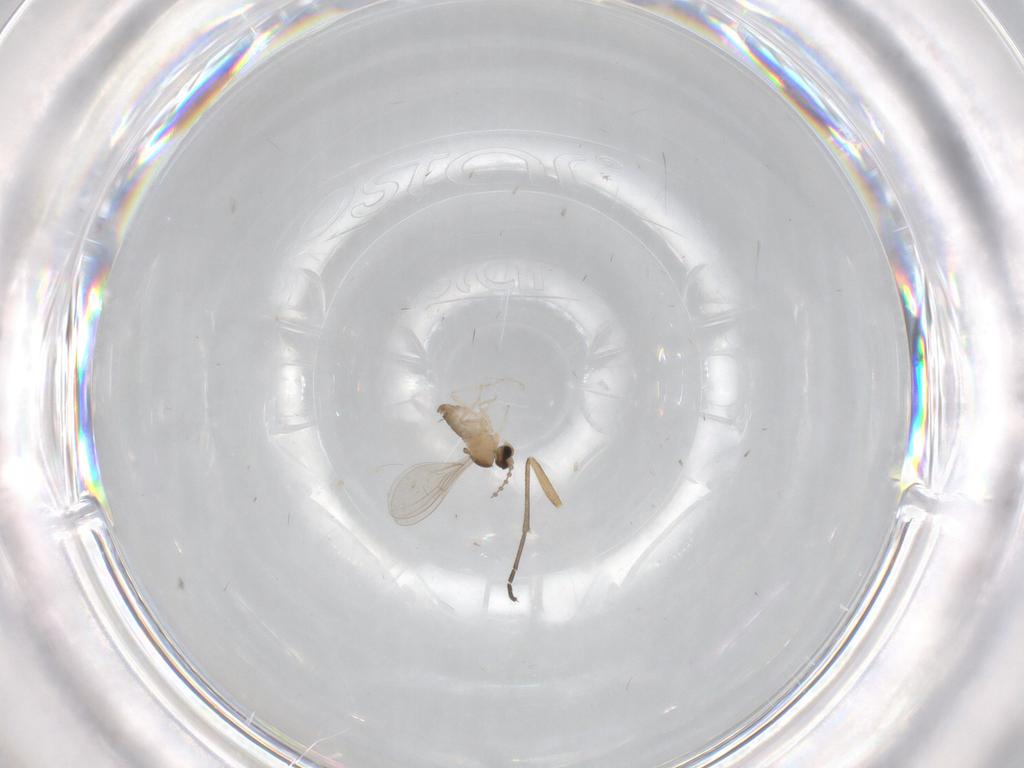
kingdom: Animalia
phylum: Arthropoda
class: Insecta
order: Diptera
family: Cecidomyiidae
